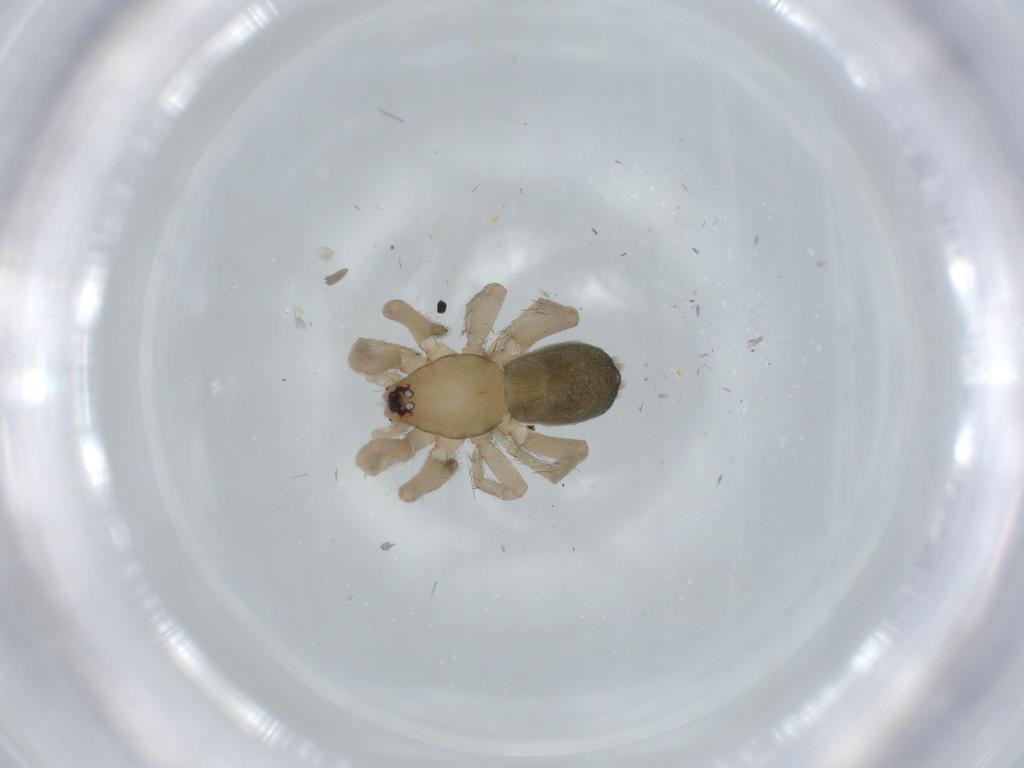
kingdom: Animalia
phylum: Arthropoda
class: Arachnida
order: Araneae
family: Gnaphosidae
